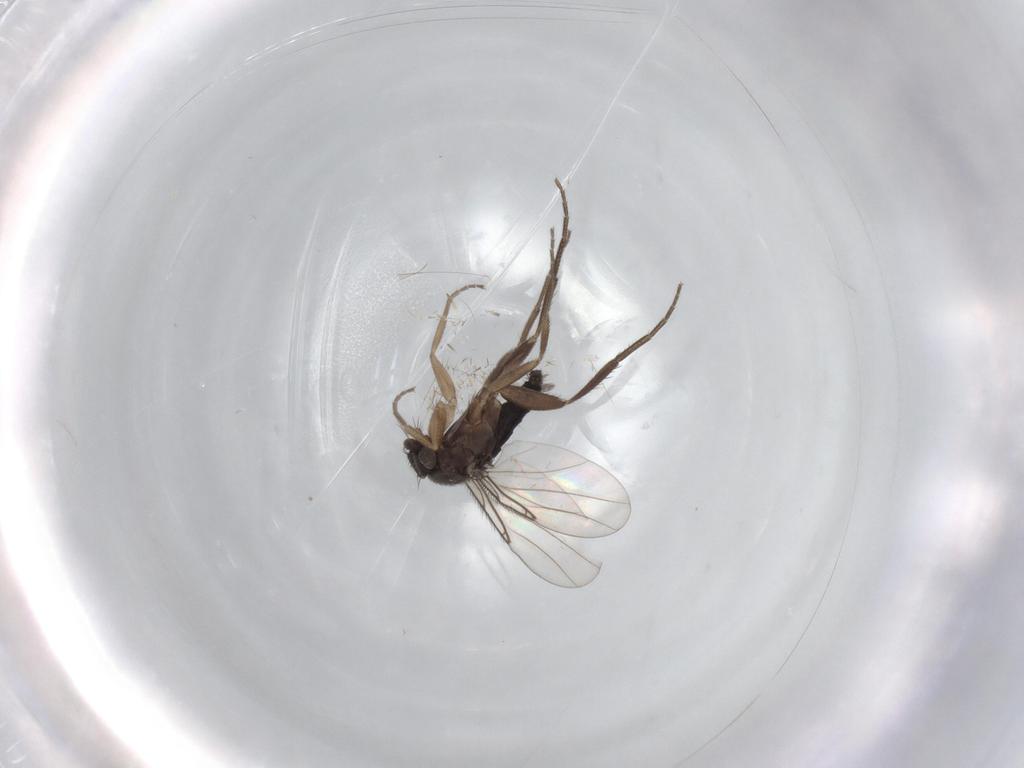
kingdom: Animalia
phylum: Arthropoda
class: Insecta
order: Diptera
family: Phoridae
